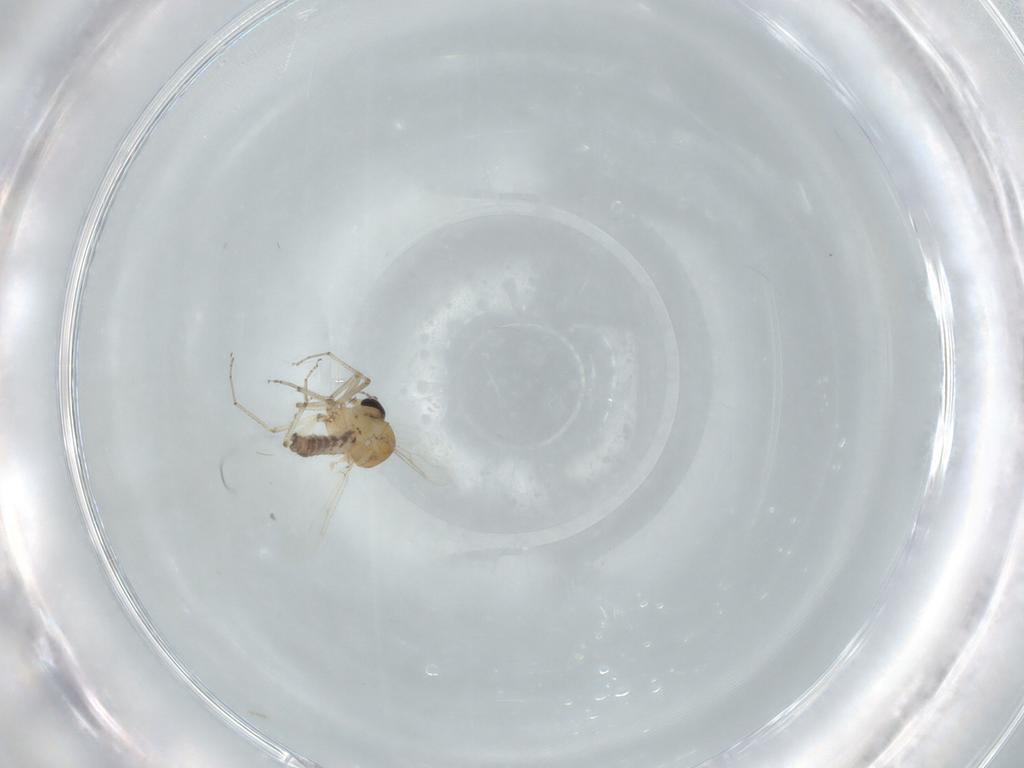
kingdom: Animalia
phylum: Arthropoda
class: Insecta
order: Diptera
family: Ceratopogonidae
